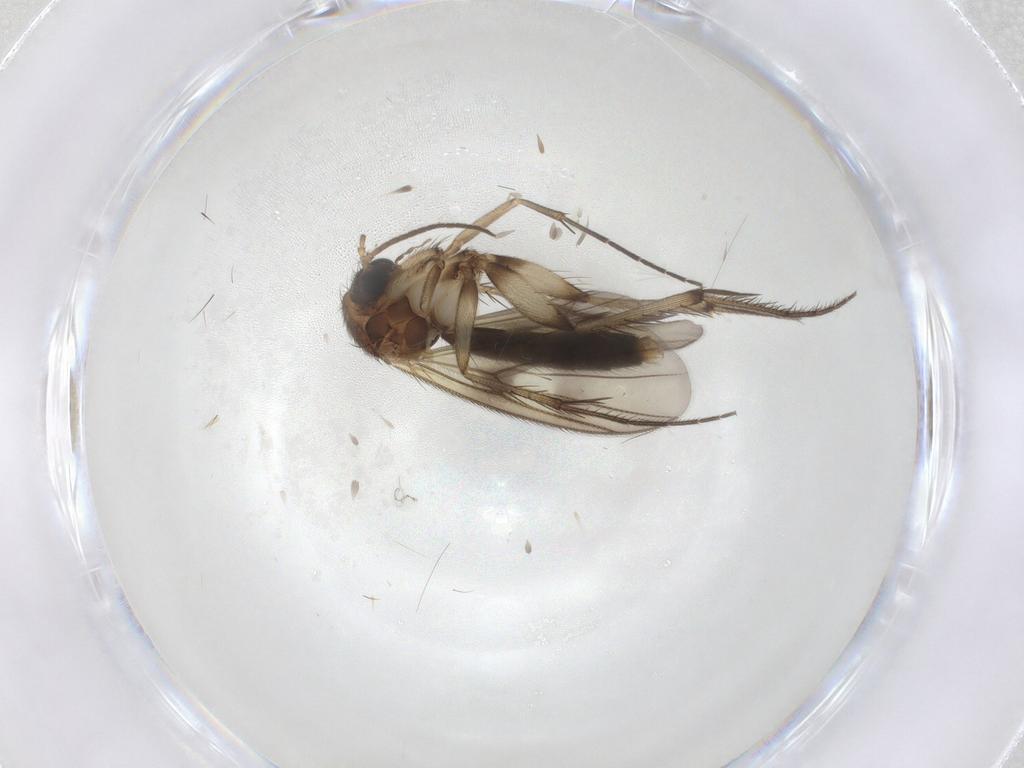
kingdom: Animalia
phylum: Arthropoda
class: Insecta
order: Diptera
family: Mycetophilidae
